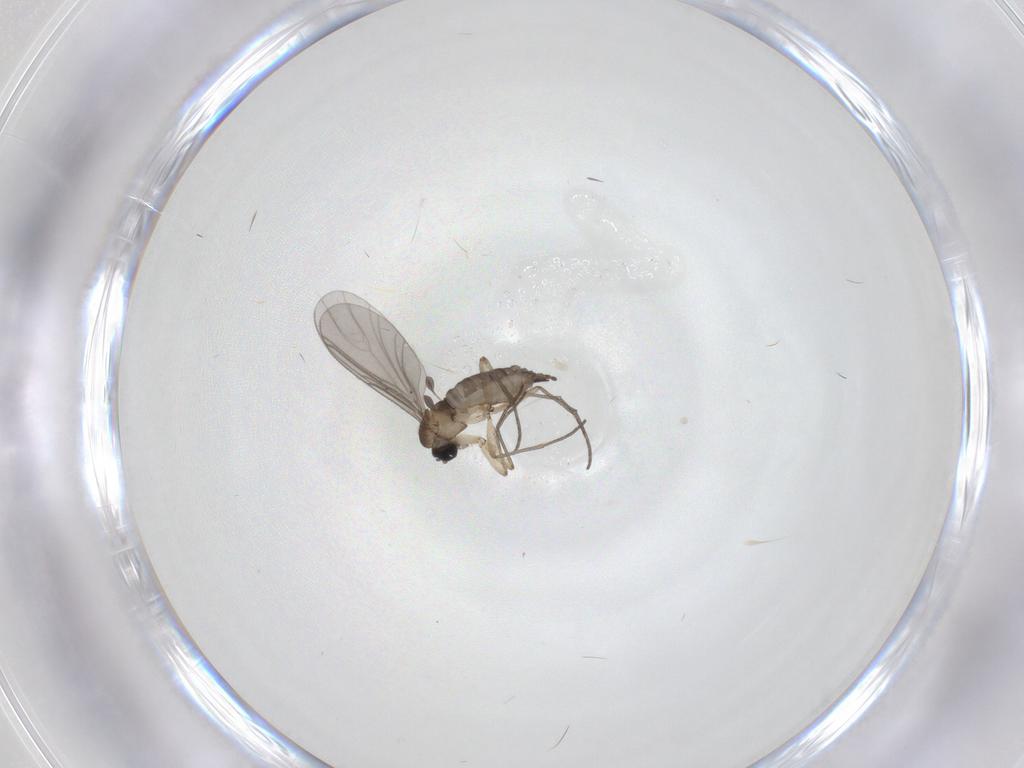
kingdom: Animalia
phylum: Arthropoda
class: Insecta
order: Diptera
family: Sciaridae
